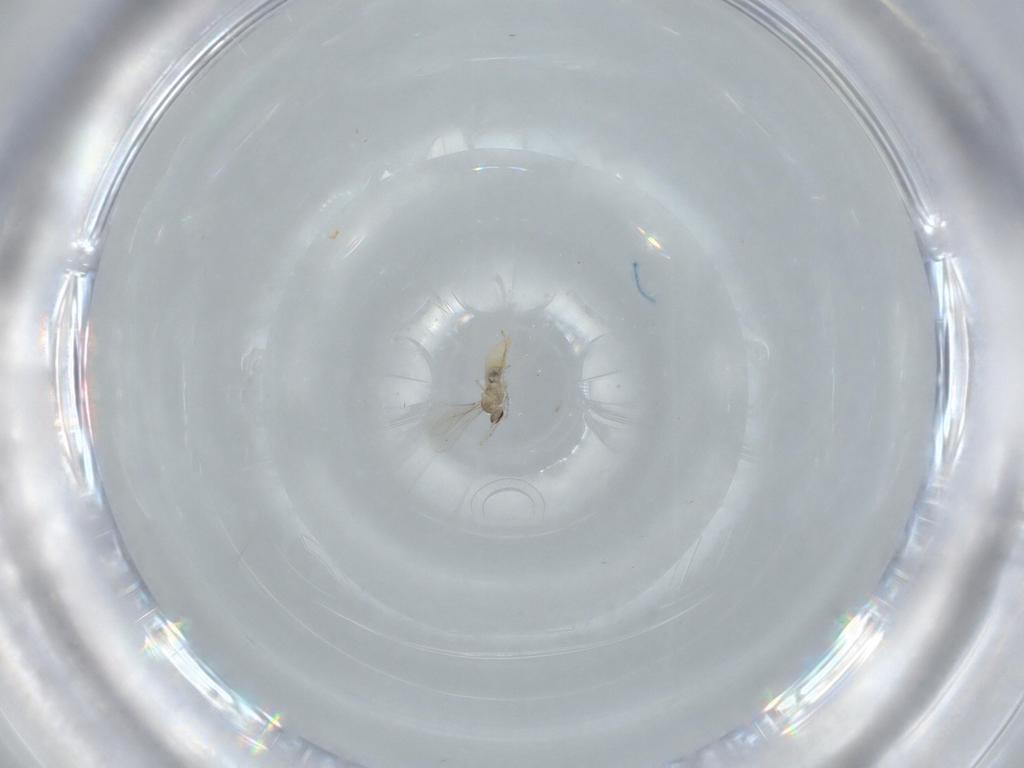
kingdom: Animalia
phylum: Arthropoda
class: Insecta
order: Diptera
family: Cecidomyiidae
